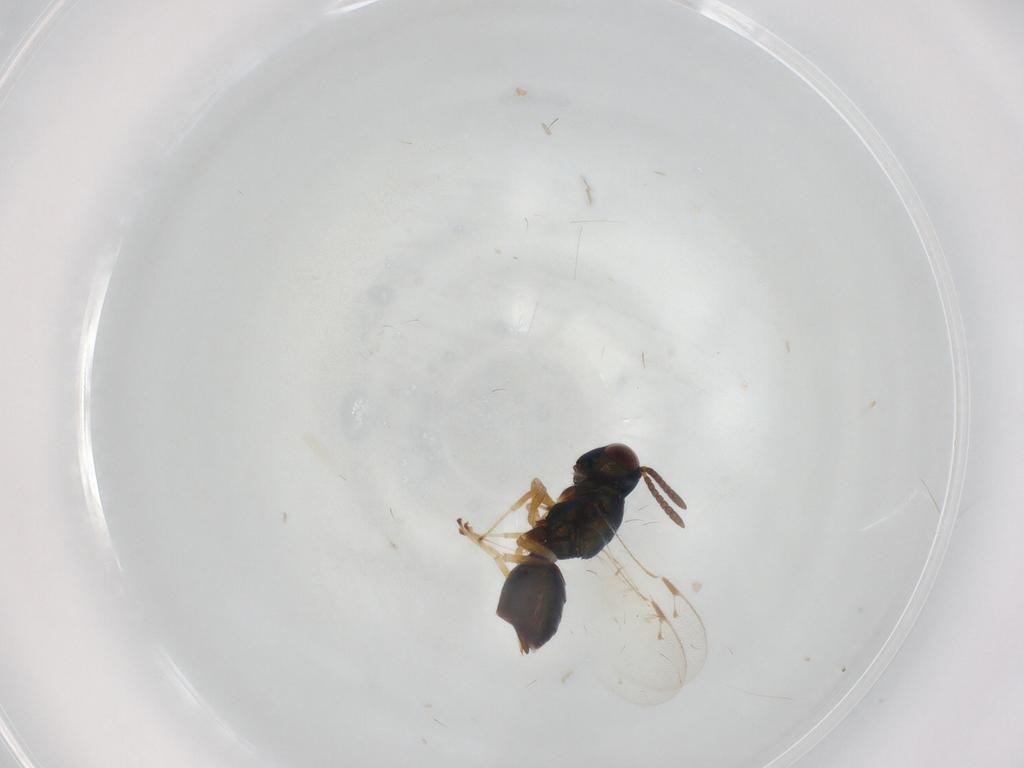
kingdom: Animalia
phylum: Arthropoda
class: Insecta
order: Hymenoptera
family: Pteromalidae
